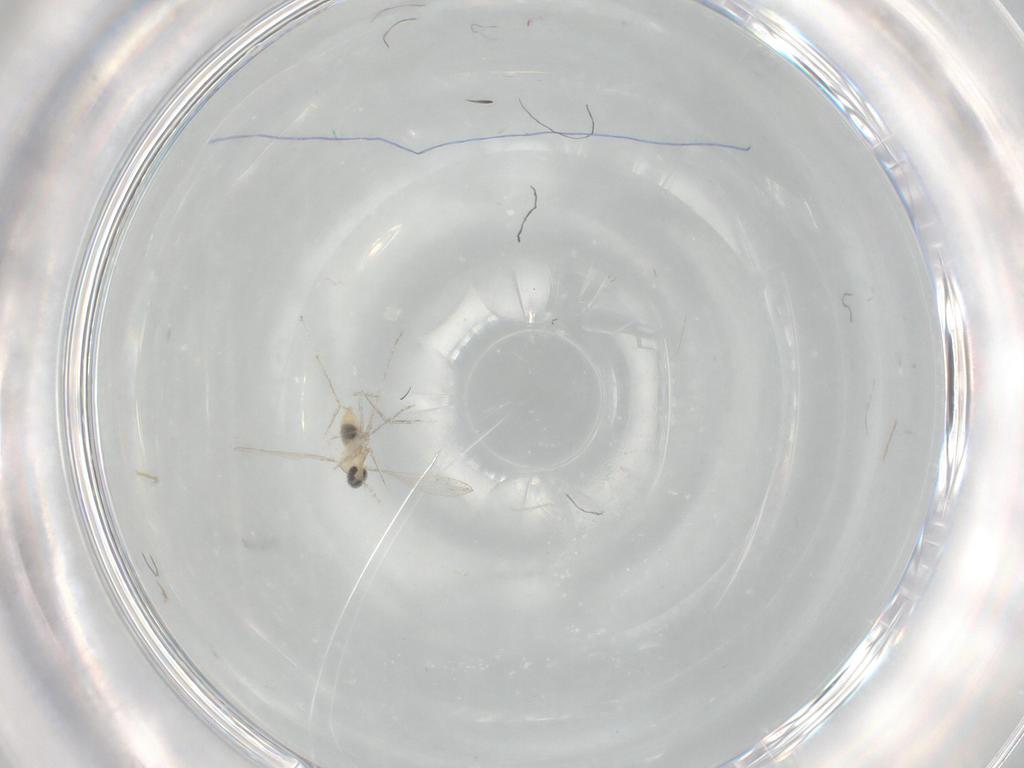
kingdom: Animalia
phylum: Arthropoda
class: Insecta
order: Diptera
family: Cecidomyiidae
